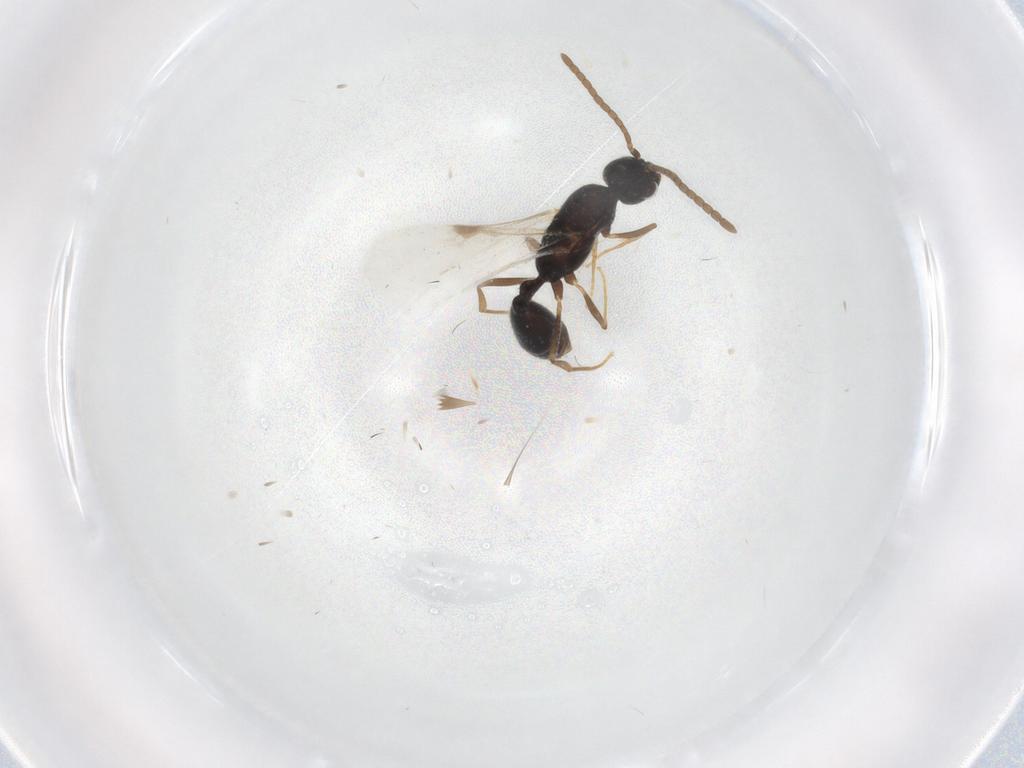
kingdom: Animalia
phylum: Arthropoda
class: Insecta
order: Hymenoptera
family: Formicidae
